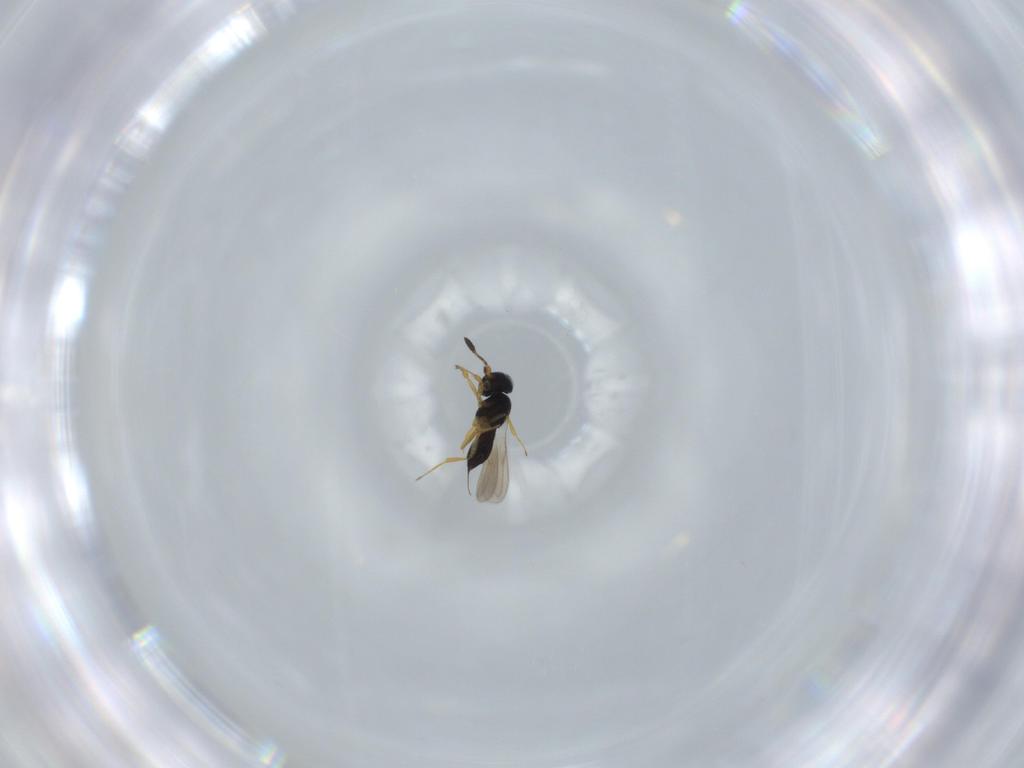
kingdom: Animalia
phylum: Arthropoda
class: Insecta
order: Hymenoptera
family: Scelionidae
